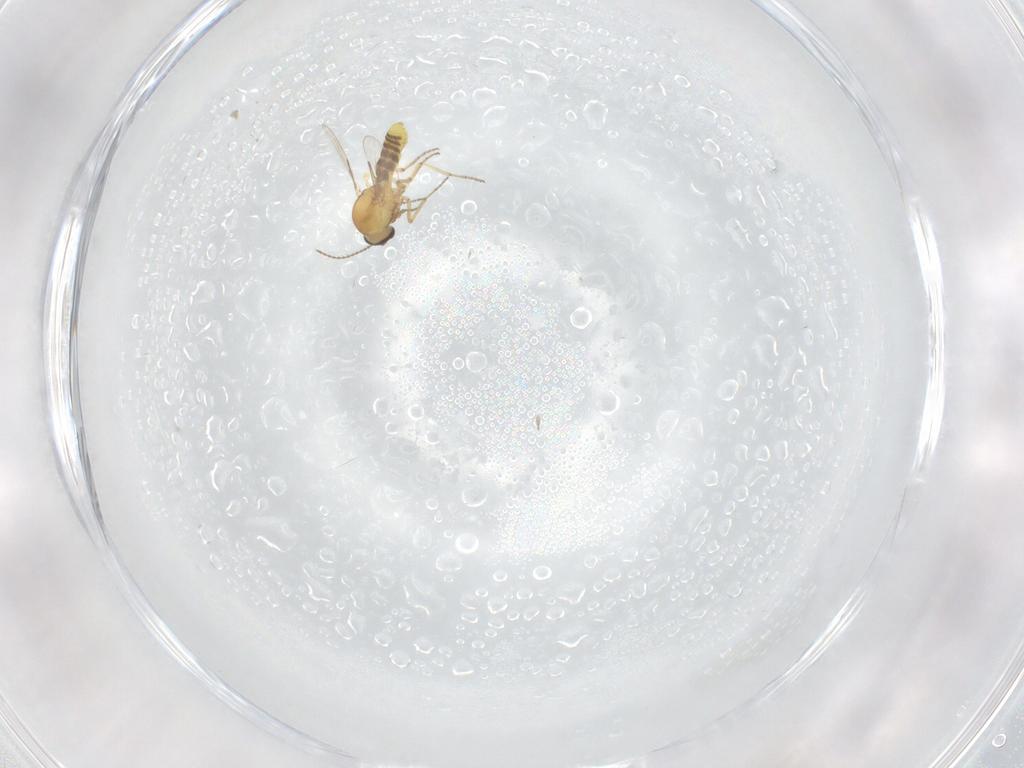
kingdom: Animalia
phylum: Arthropoda
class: Insecta
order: Diptera
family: Ceratopogonidae
